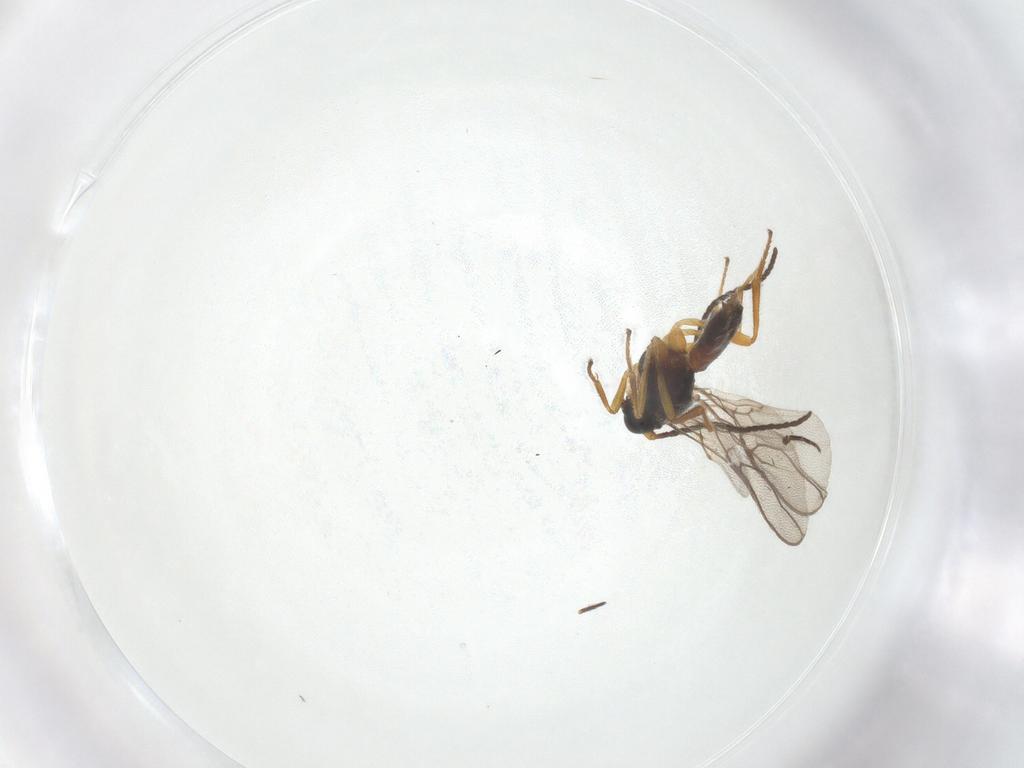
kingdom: Animalia
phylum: Arthropoda
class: Insecta
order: Hymenoptera
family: Braconidae
